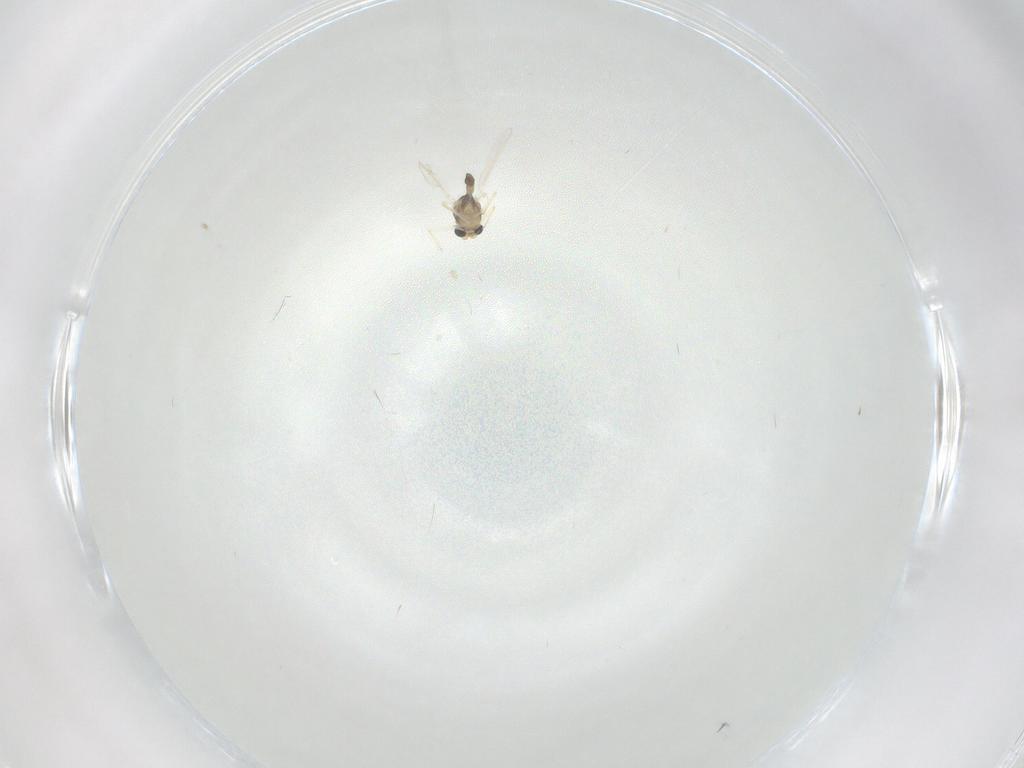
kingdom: Animalia
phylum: Arthropoda
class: Insecta
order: Diptera
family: Chironomidae
